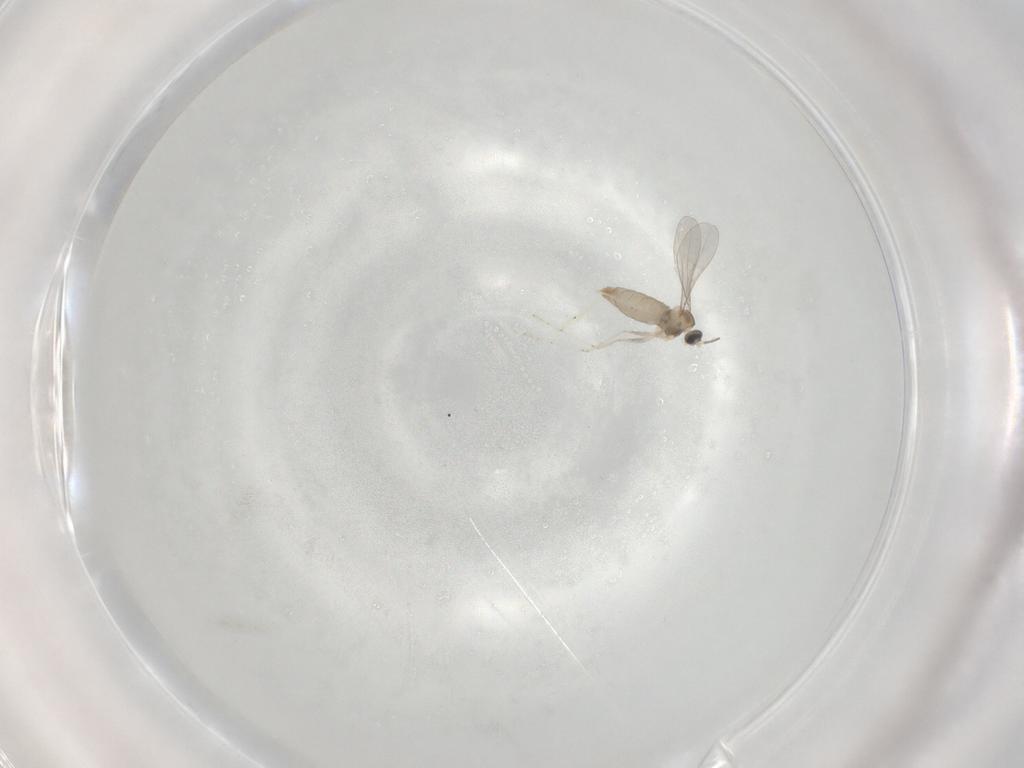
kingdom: Animalia
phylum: Arthropoda
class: Insecta
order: Diptera
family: Cecidomyiidae
